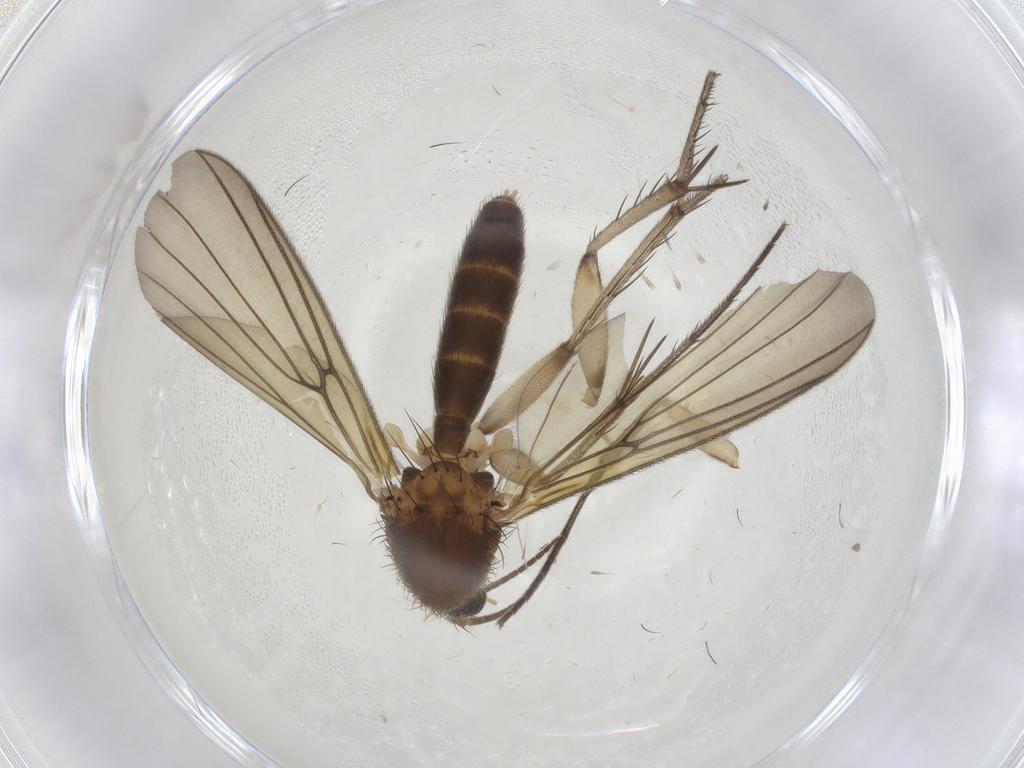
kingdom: Animalia
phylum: Arthropoda
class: Insecta
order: Diptera
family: Mycetophilidae
